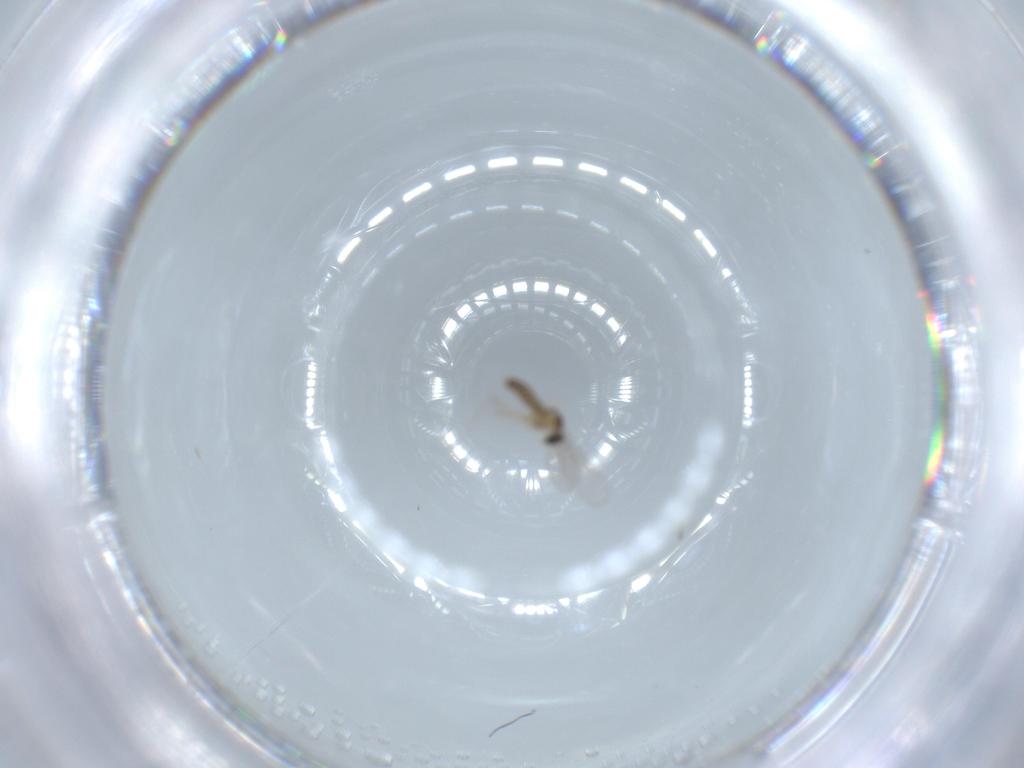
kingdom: Animalia
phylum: Arthropoda
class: Insecta
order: Diptera
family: Cecidomyiidae
